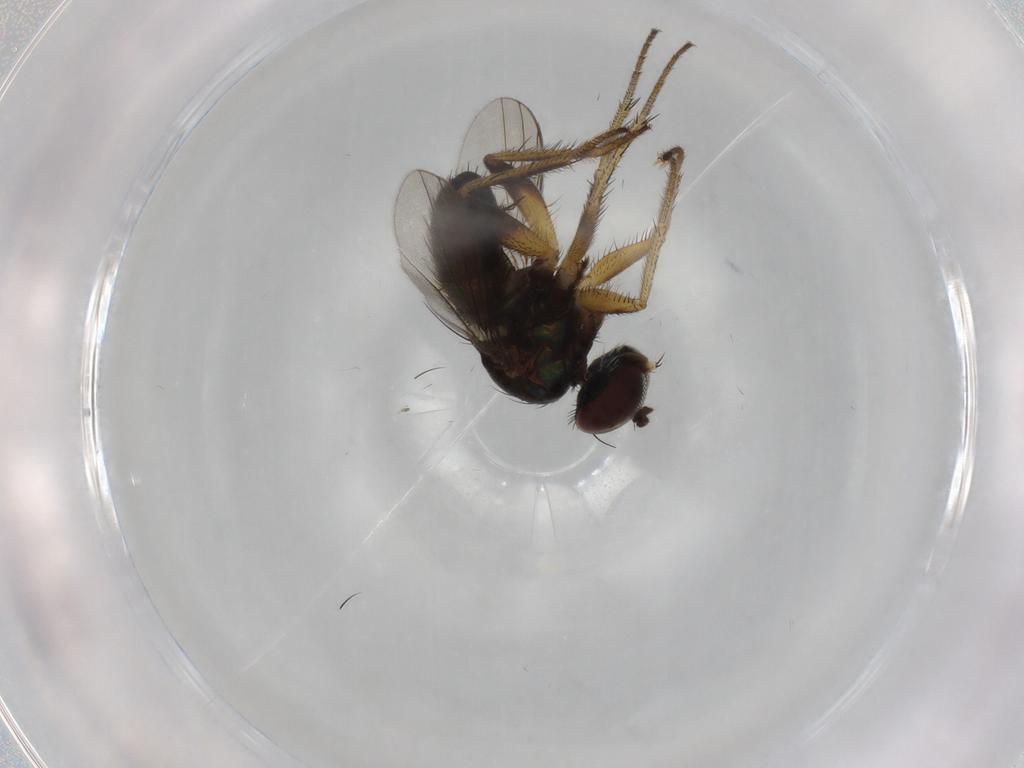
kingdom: Animalia
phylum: Arthropoda
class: Insecta
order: Diptera
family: Dolichopodidae
